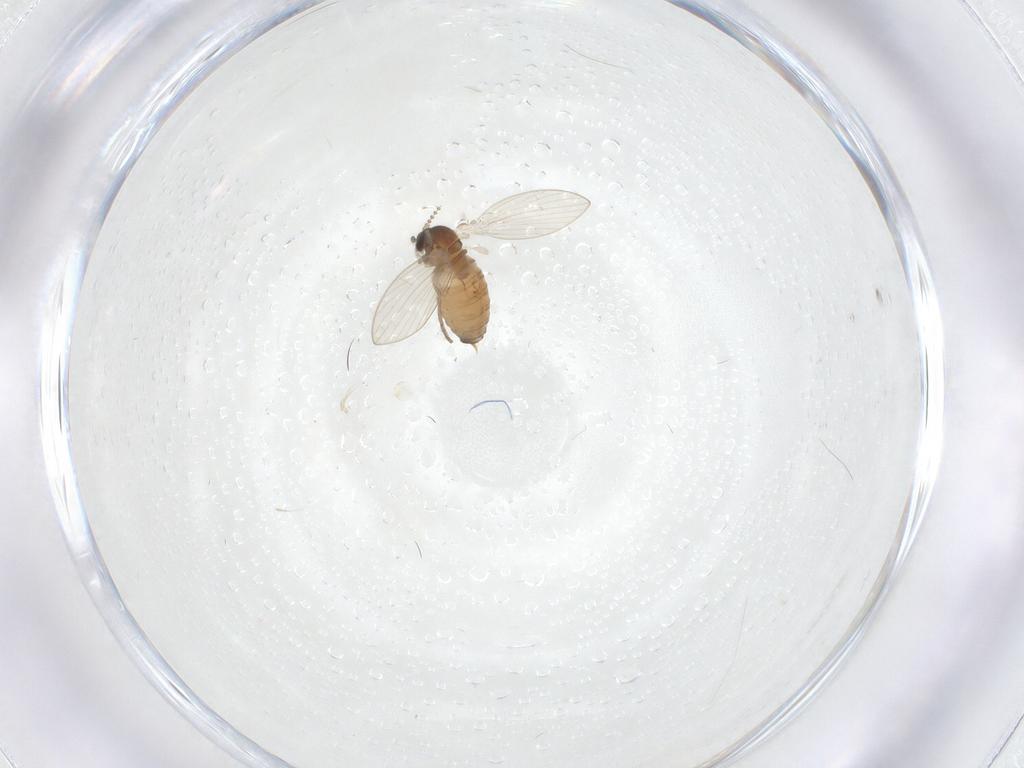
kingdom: Animalia
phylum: Arthropoda
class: Insecta
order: Diptera
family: Psychodidae
